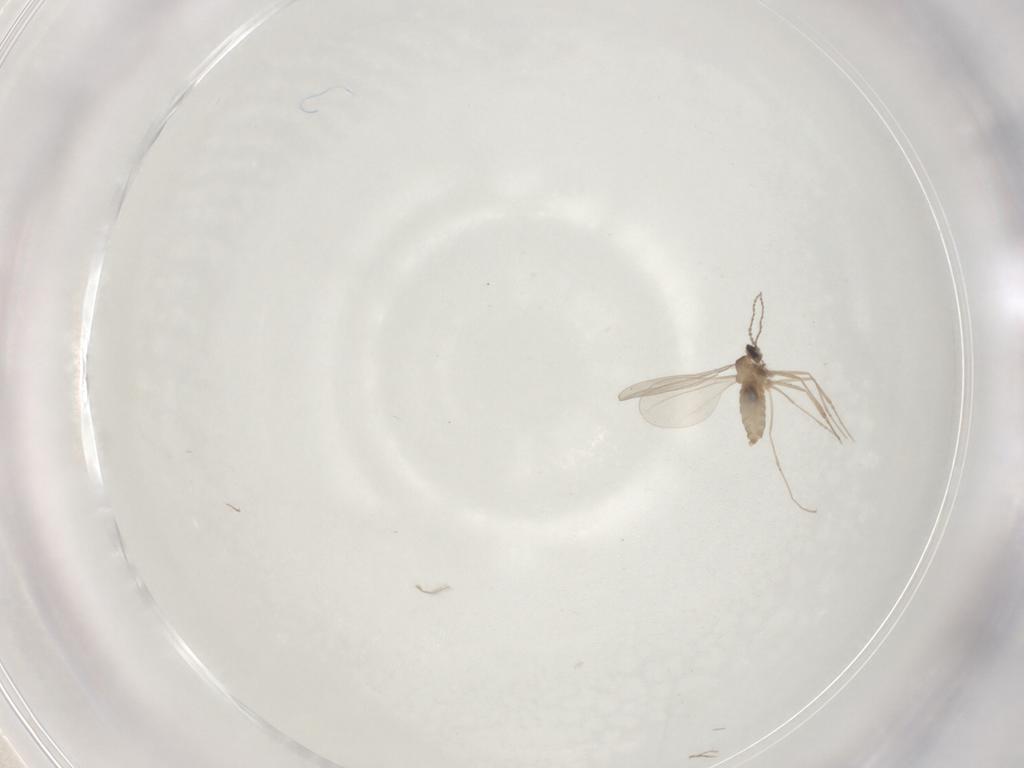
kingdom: Animalia
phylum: Arthropoda
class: Insecta
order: Diptera
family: Cecidomyiidae
